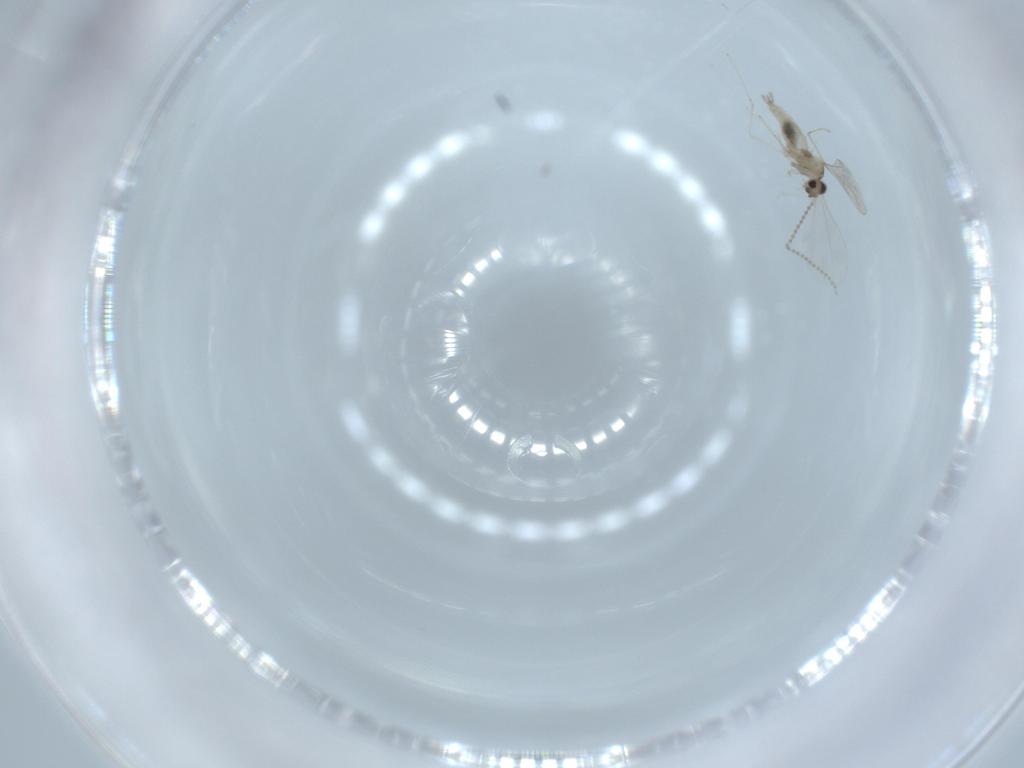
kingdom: Animalia
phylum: Arthropoda
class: Insecta
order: Diptera
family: Cecidomyiidae
